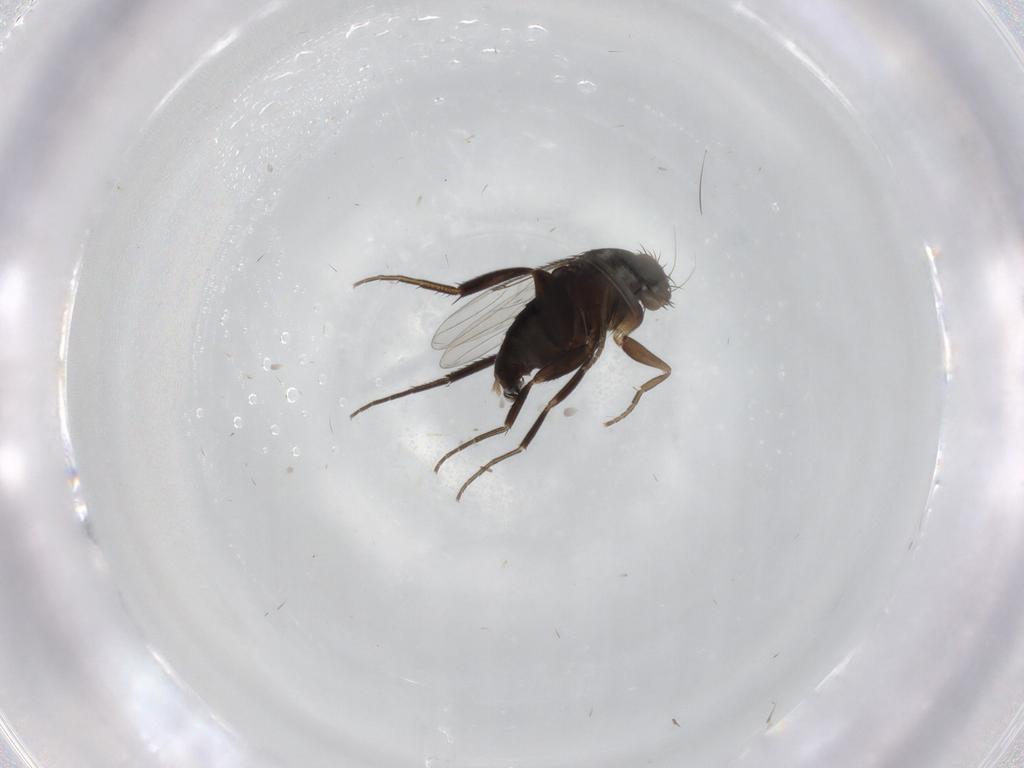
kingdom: Animalia
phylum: Arthropoda
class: Insecta
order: Diptera
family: Phoridae
